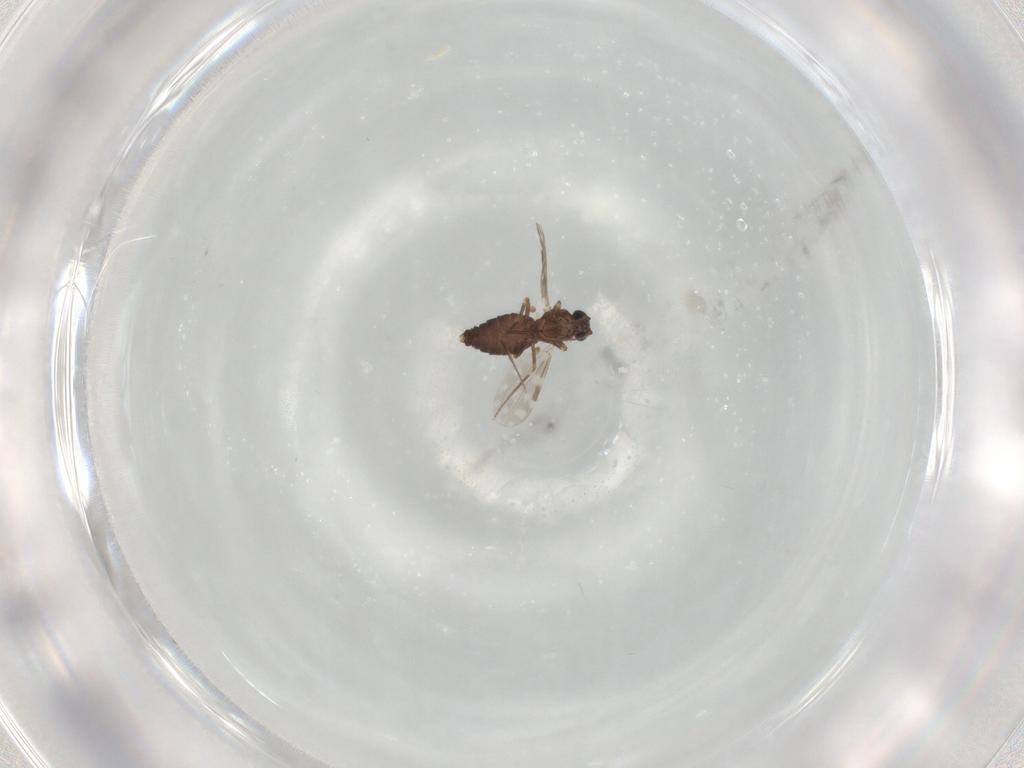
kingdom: Animalia
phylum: Arthropoda
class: Insecta
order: Diptera
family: Ceratopogonidae
